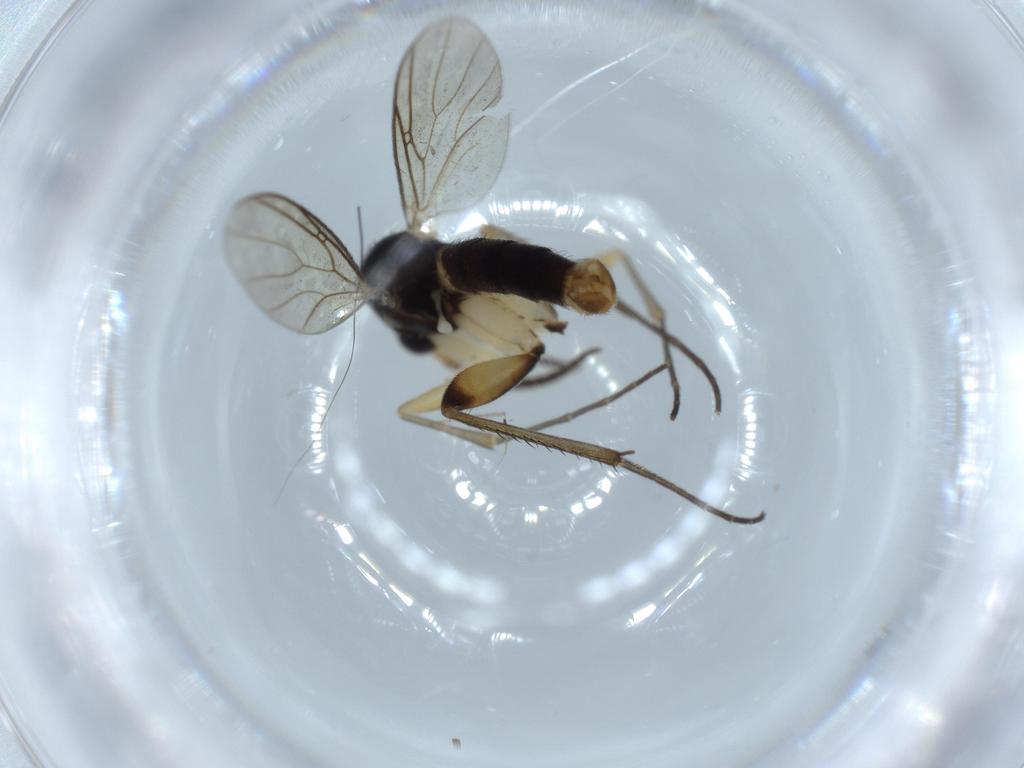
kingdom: Animalia
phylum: Arthropoda
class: Insecta
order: Diptera
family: Mycetophilidae
